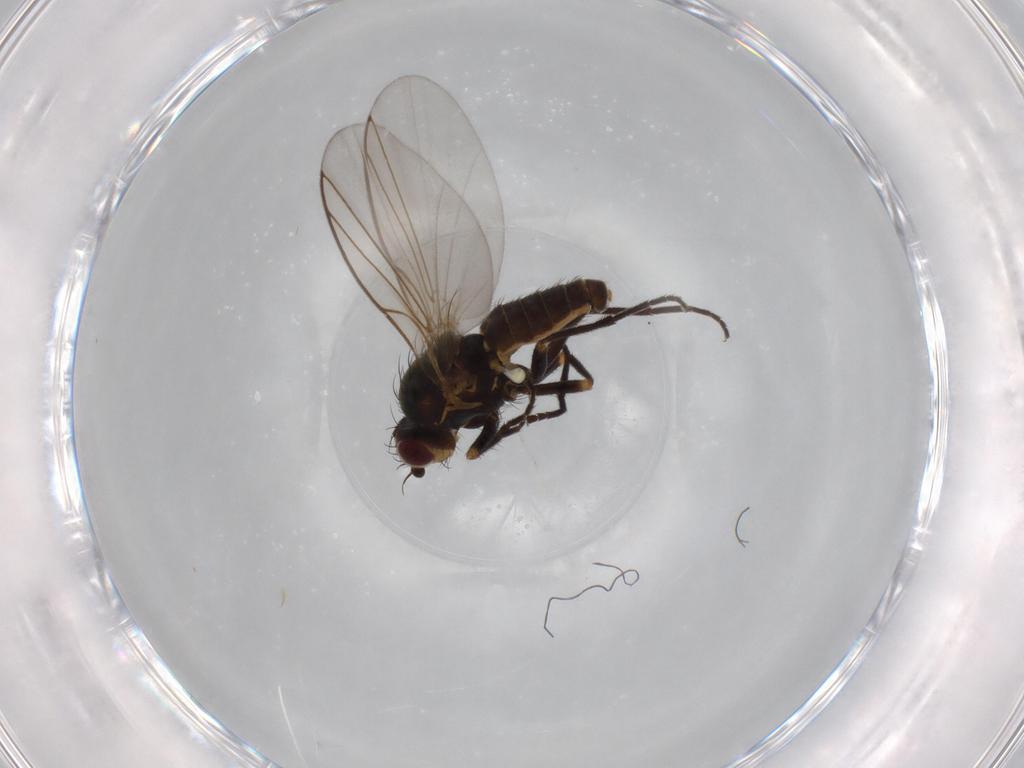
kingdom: Animalia
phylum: Arthropoda
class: Insecta
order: Diptera
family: Agromyzidae
